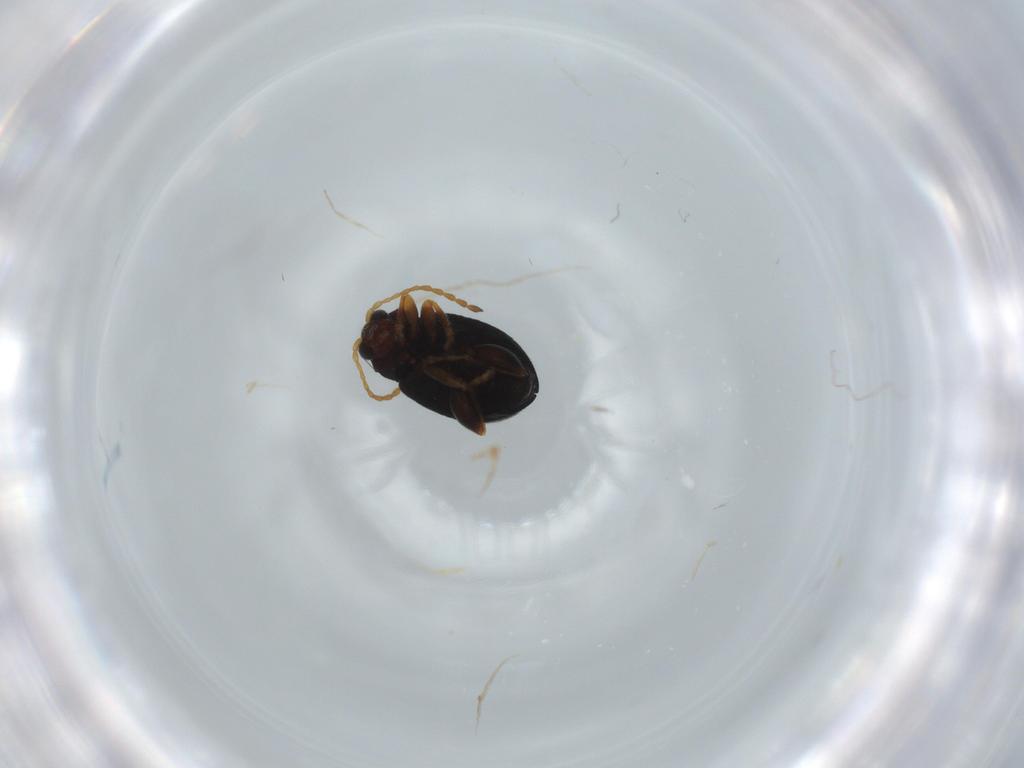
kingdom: Animalia
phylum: Arthropoda
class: Insecta
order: Coleoptera
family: Chrysomelidae
